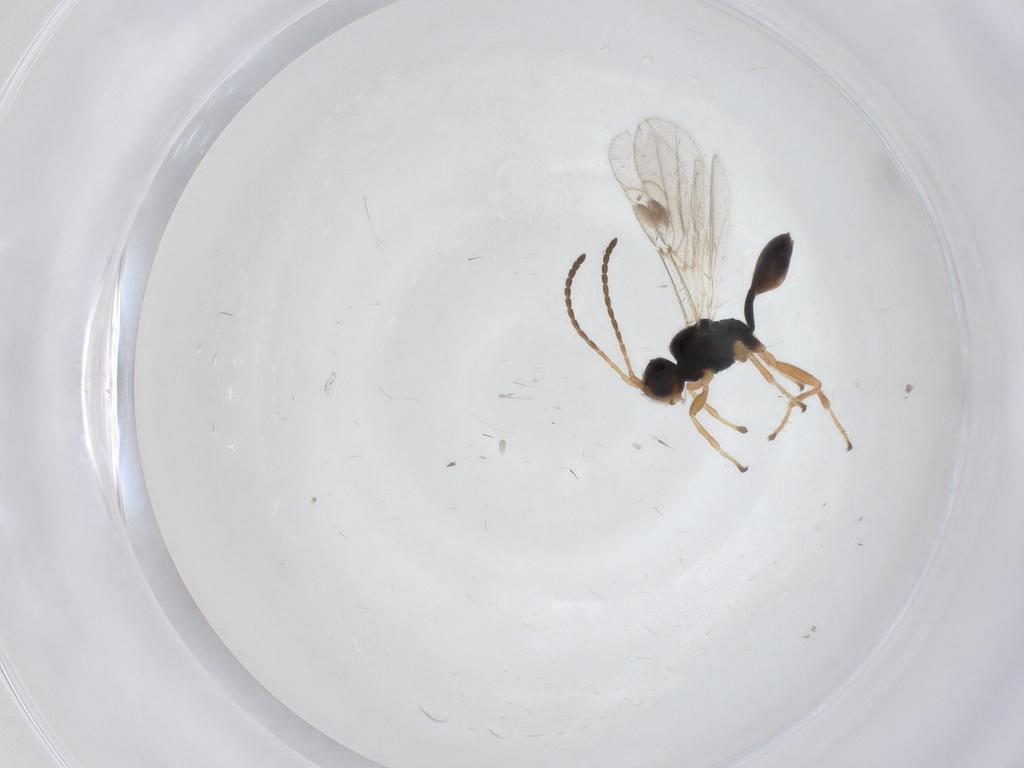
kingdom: Animalia
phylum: Arthropoda
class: Insecta
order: Hymenoptera
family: Braconidae
